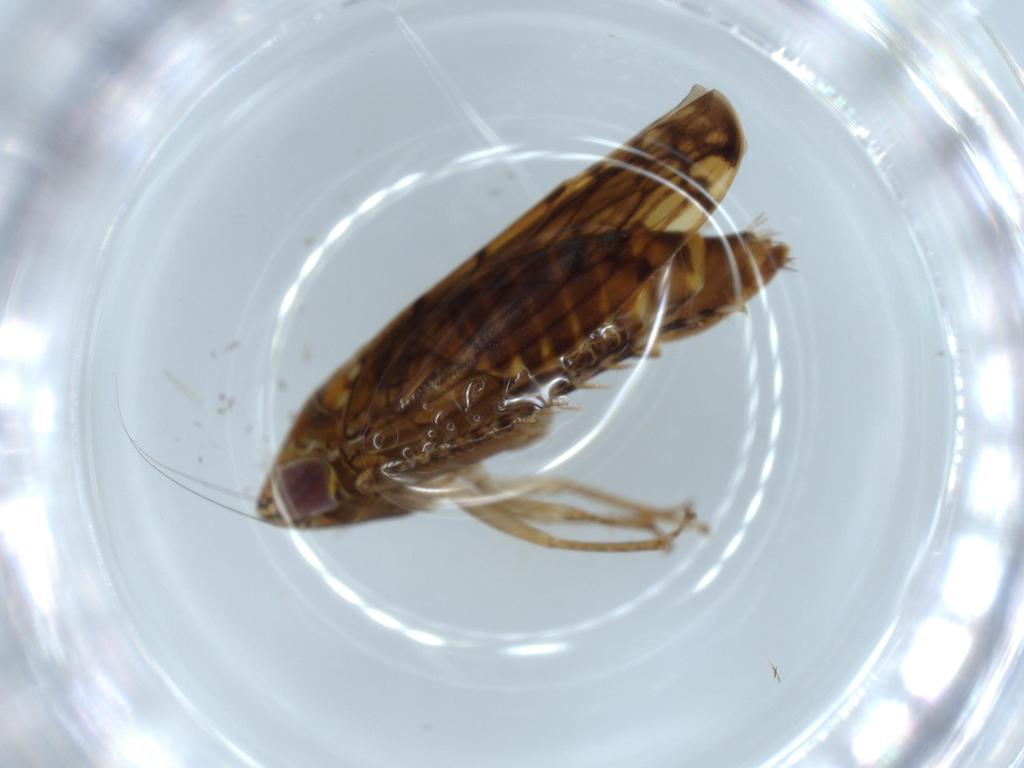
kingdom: Animalia
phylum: Arthropoda
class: Insecta
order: Hemiptera
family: Cicadellidae
